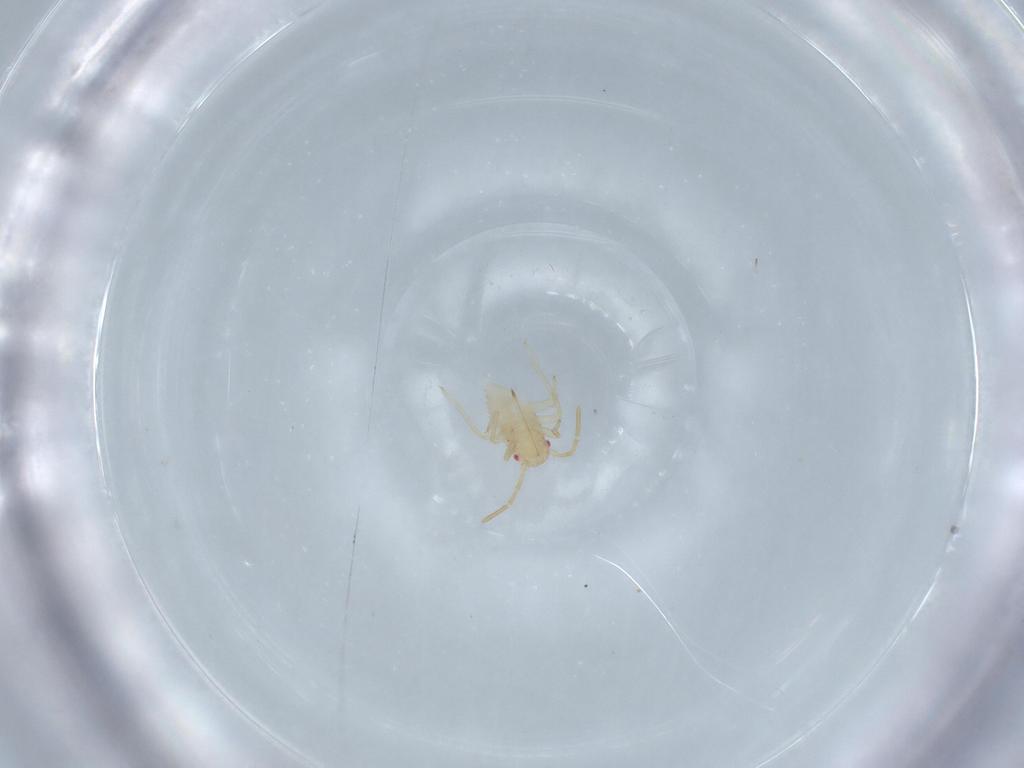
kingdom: Animalia
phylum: Arthropoda
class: Insecta
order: Hemiptera
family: Miridae
